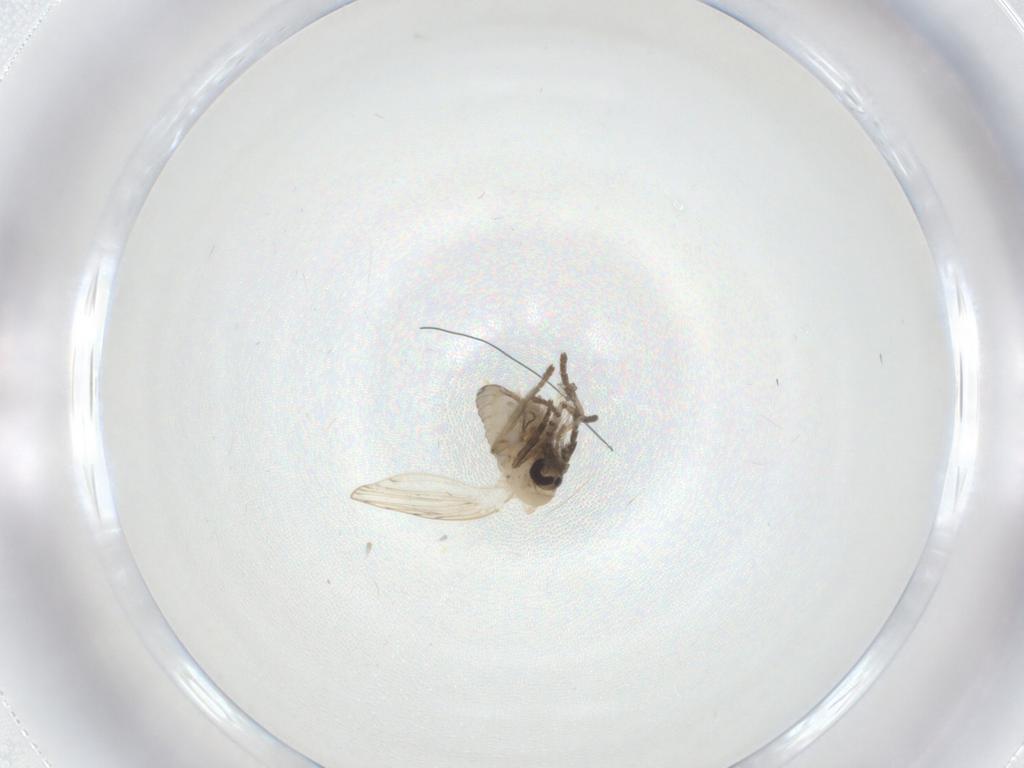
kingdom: Animalia
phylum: Arthropoda
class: Insecta
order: Diptera
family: Psychodidae
